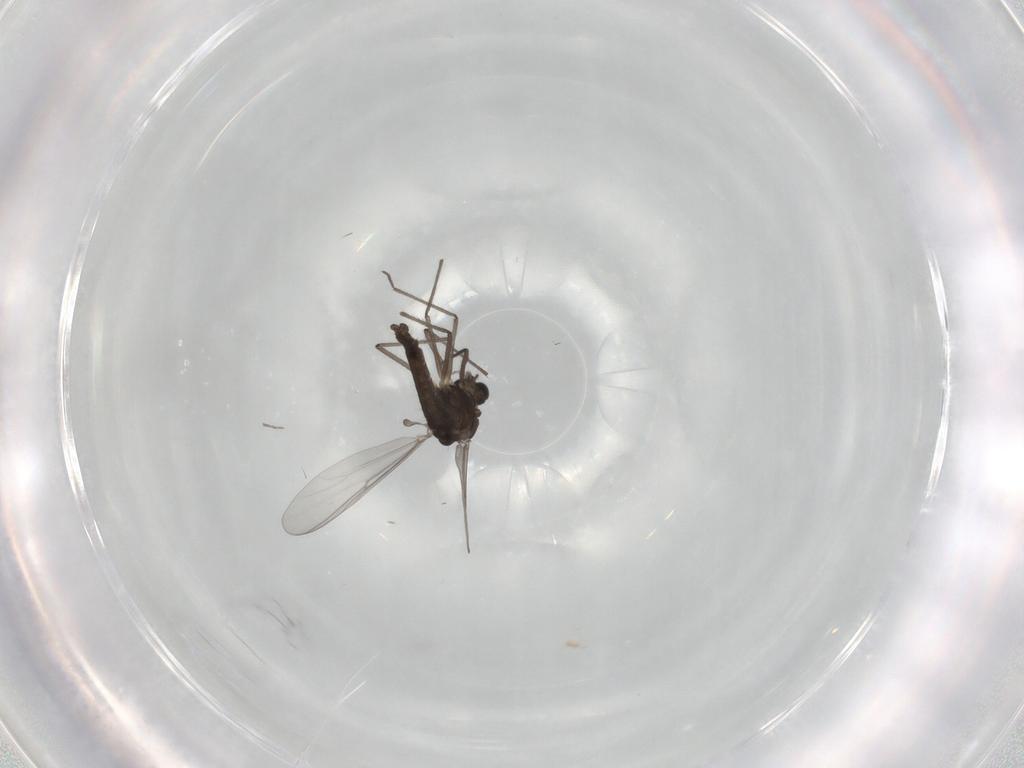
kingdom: Animalia
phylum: Arthropoda
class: Insecta
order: Diptera
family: Chironomidae
